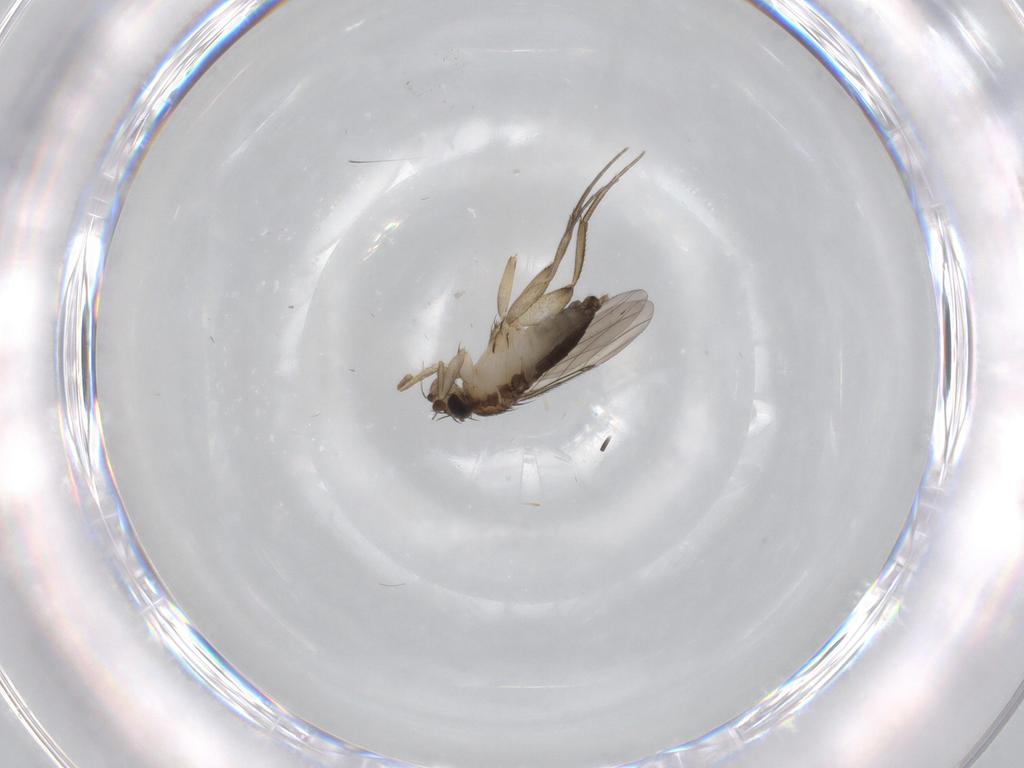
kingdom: Animalia
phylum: Arthropoda
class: Insecta
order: Diptera
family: Phoridae
